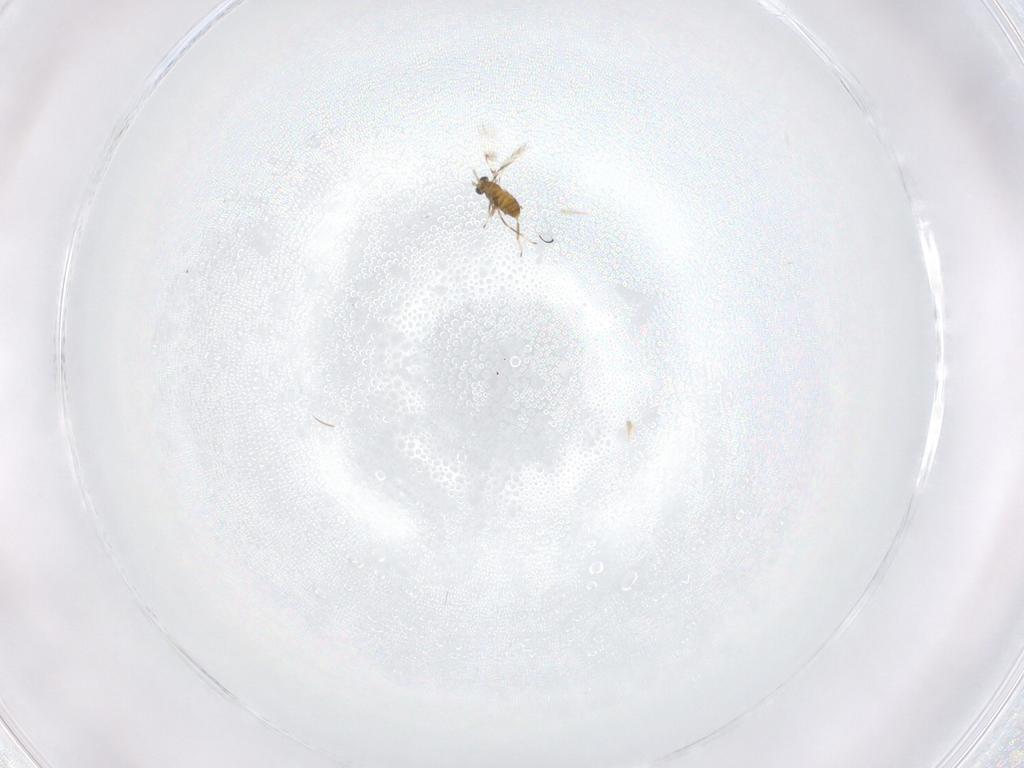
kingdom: Animalia
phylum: Arthropoda
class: Insecta
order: Hymenoptera
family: Trichogrammatidae
